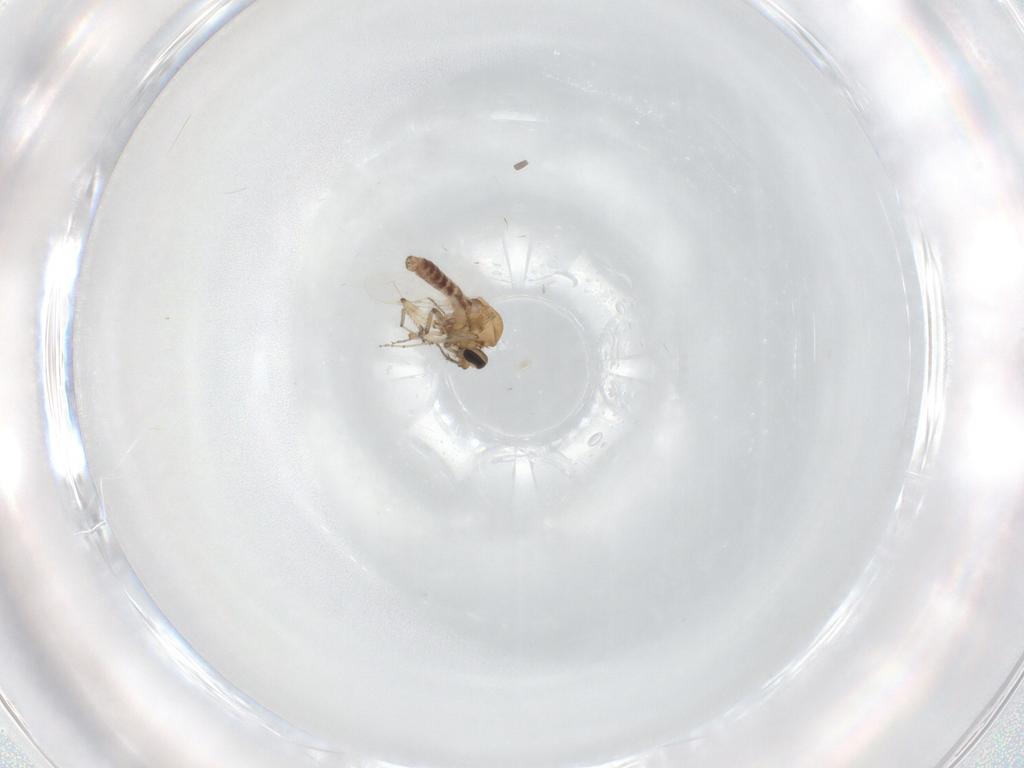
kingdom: Animalia
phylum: Arthropoda
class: Insecta
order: Diptera
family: Ceratopogonidae
